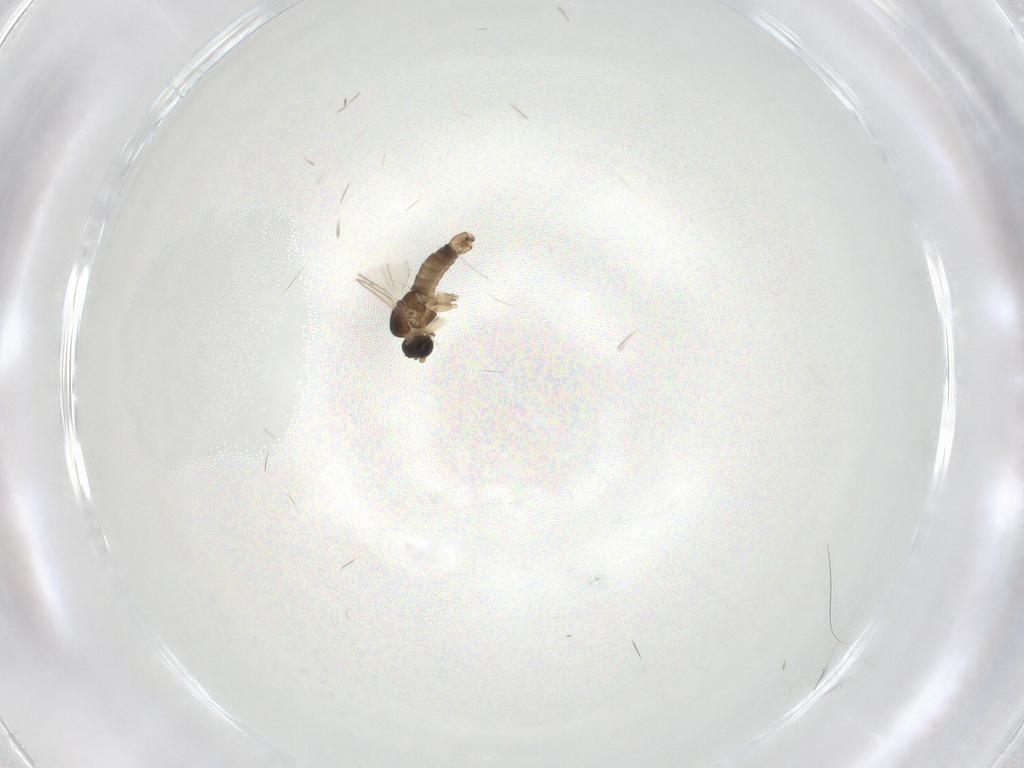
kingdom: Animalia
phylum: Arthropoda
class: Insecta
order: Diptera
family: Sciaridae
